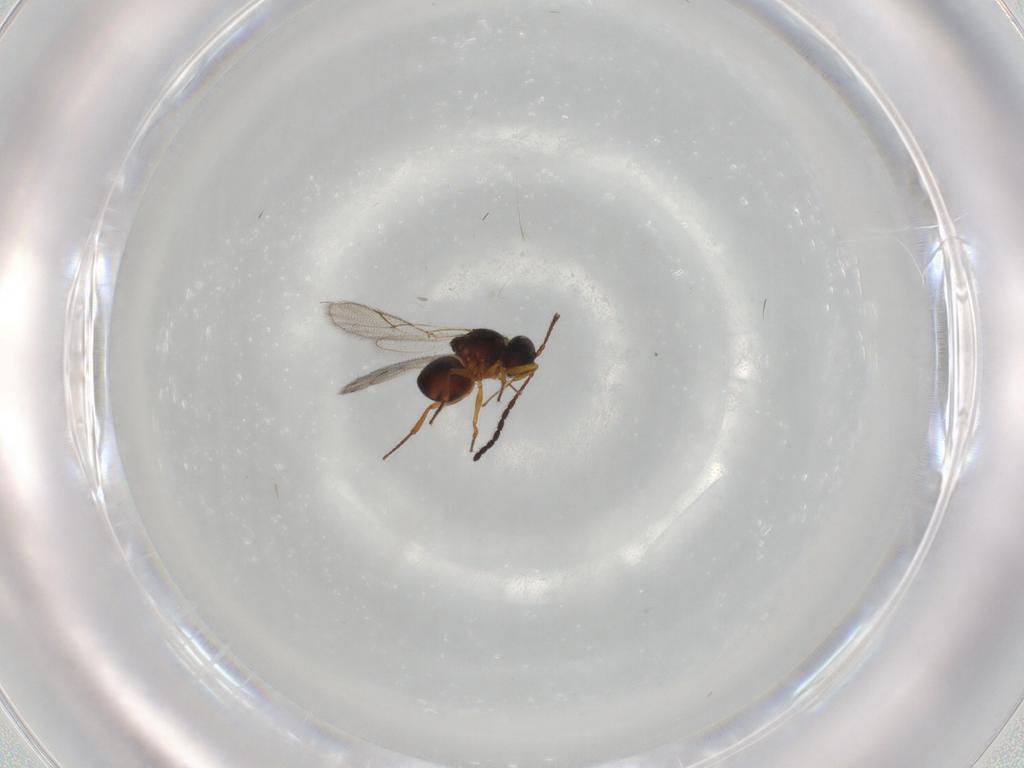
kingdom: Animalia
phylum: Arthropoda
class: Insecta
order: Hymenoptera
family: Figitidae
